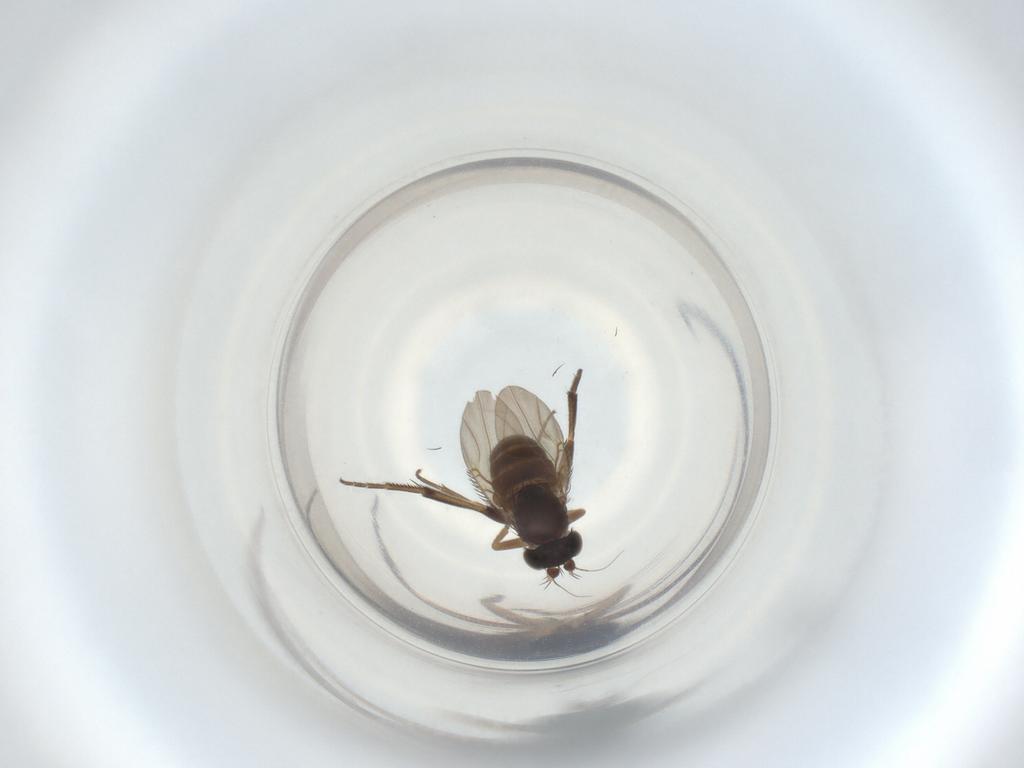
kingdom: Animalia
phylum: Arthropoda
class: Insecta
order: Diptera
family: Phoridae
